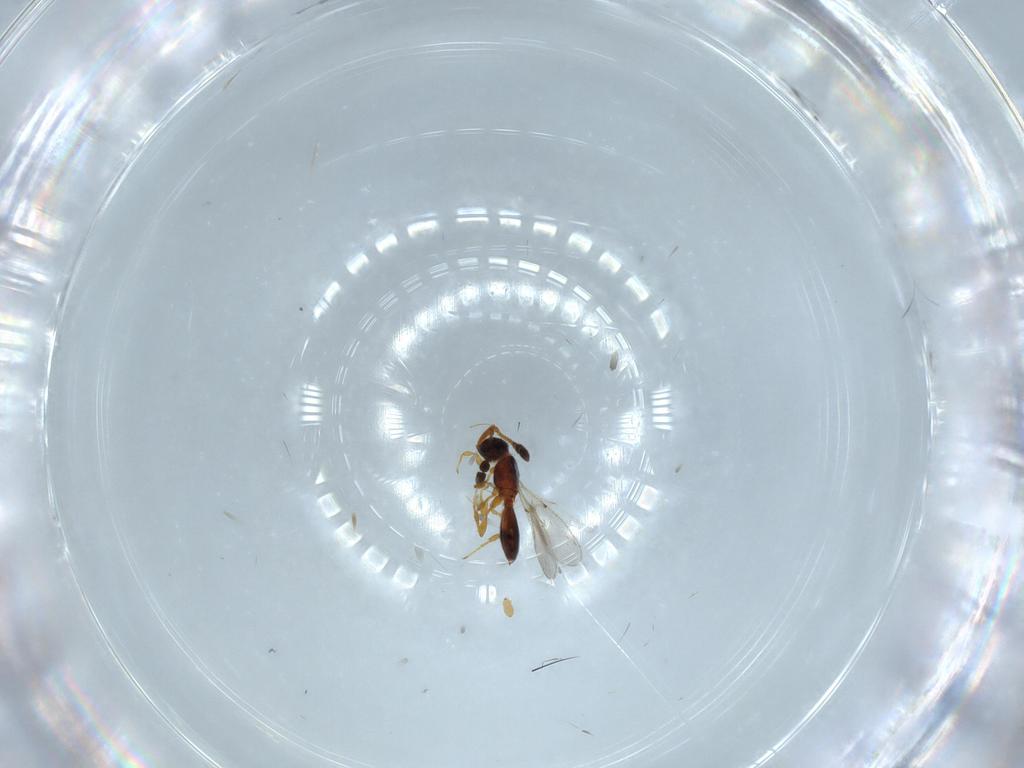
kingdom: Animalia
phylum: Arthropoda
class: Insecta
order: Hymenoptera
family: Diapriidae
